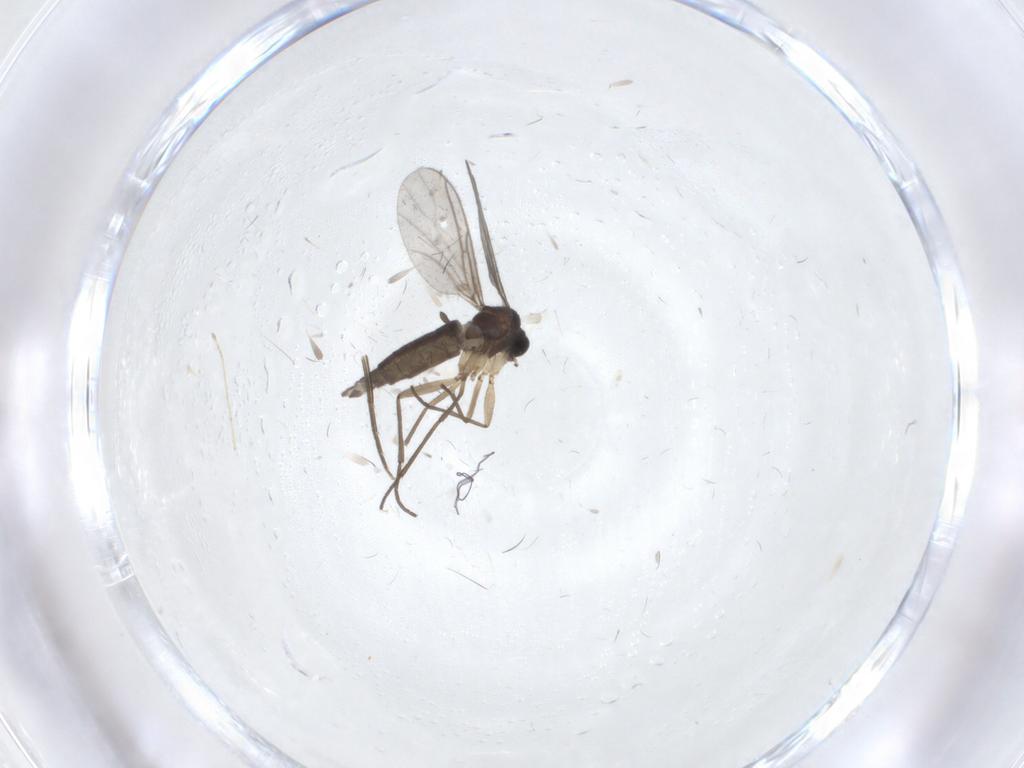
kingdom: Animalia
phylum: Arthropoda
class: Insecta
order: Diptera
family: Sciaridae
